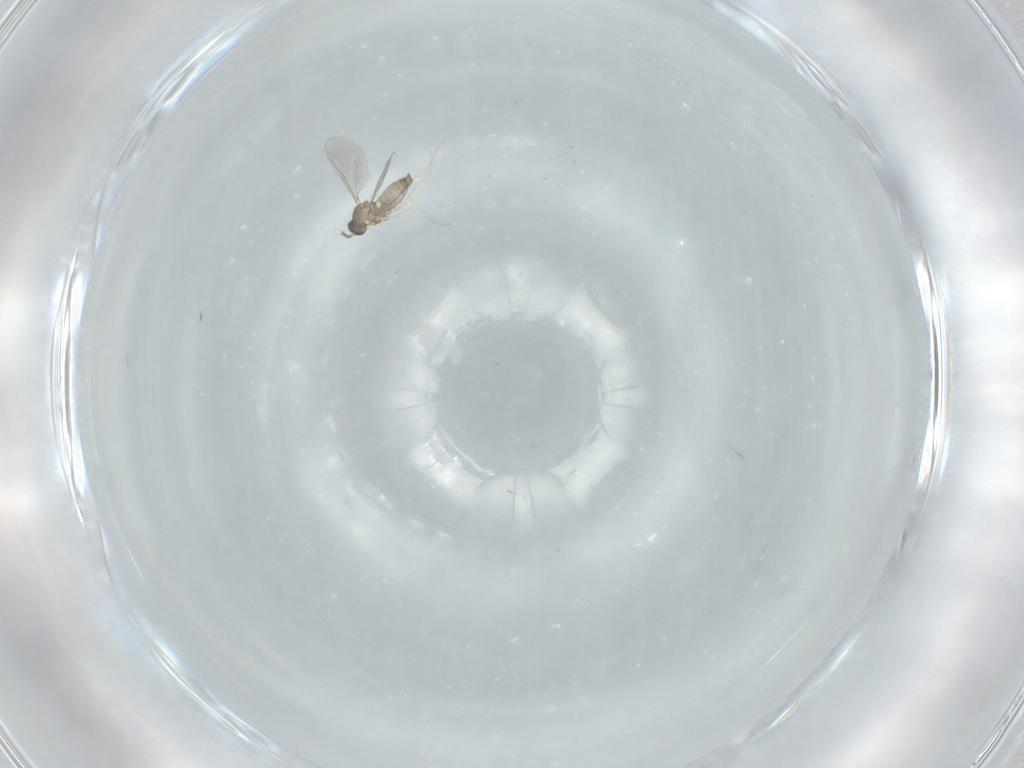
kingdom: Animalia
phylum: Arthropoda
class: Insecta
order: Diptera
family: Cecidomyiidae
